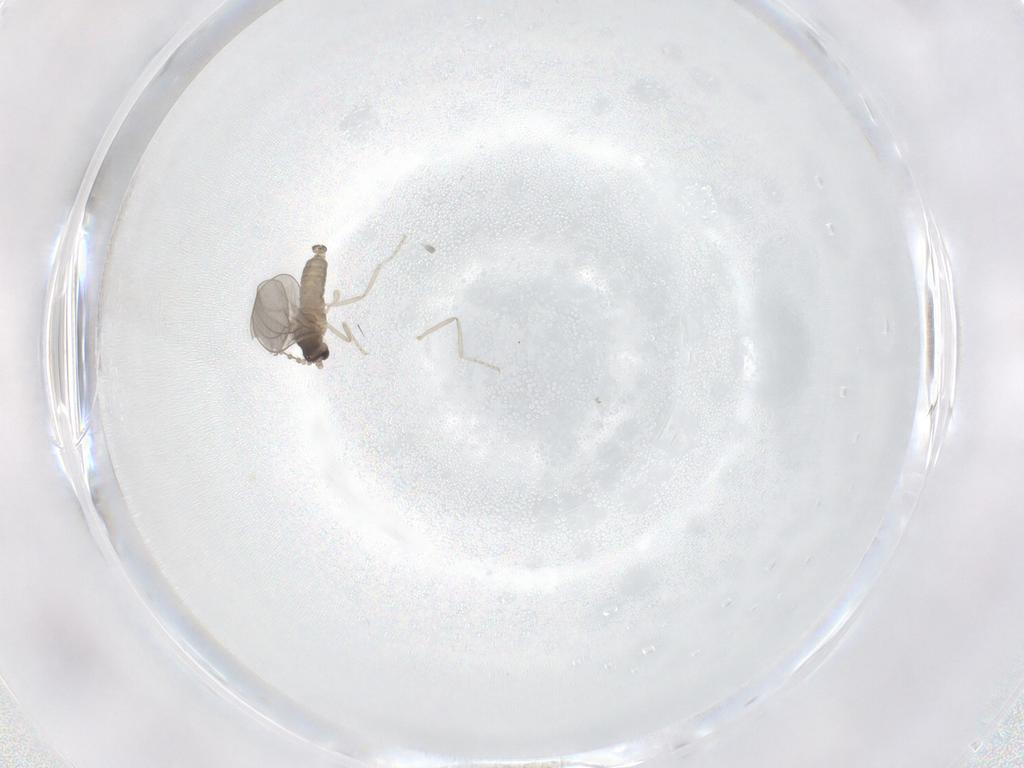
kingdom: Animalia
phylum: Arthropoda
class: Insecta
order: Diptera
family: Cecidomyiidae
